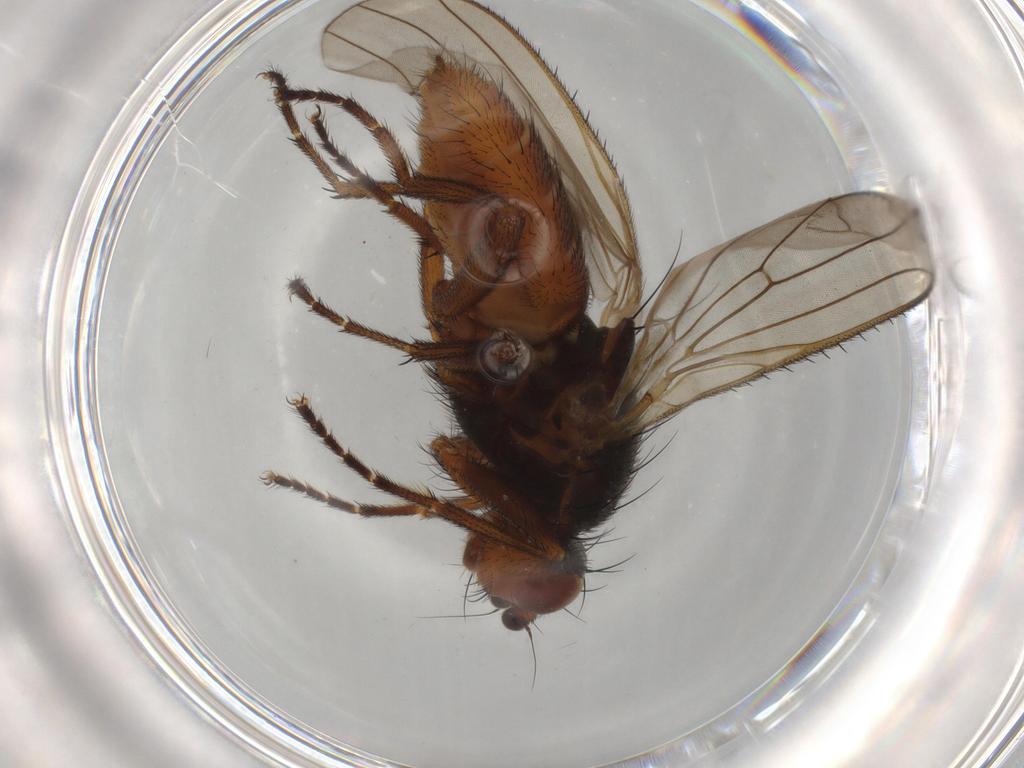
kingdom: Animalia
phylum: Arthropoda
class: Insecta
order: Diptera
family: Heleomyzidae
